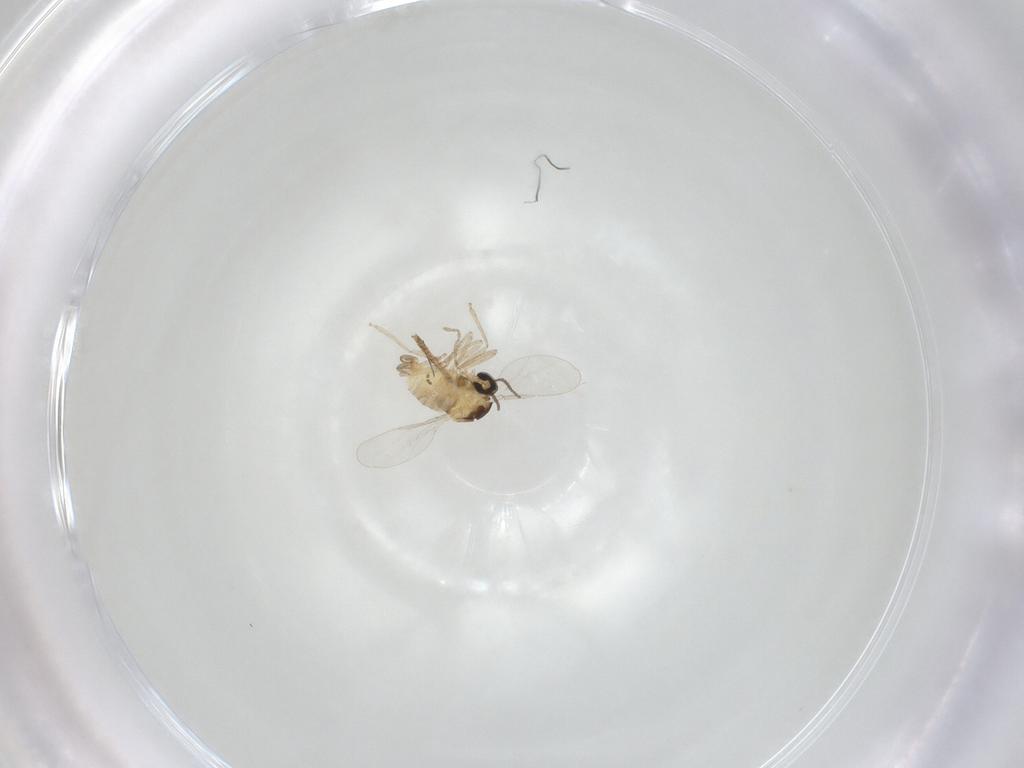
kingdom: Animalia
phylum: Arthropoda
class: Insecta
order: Diptera
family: Cecidomyiidae
